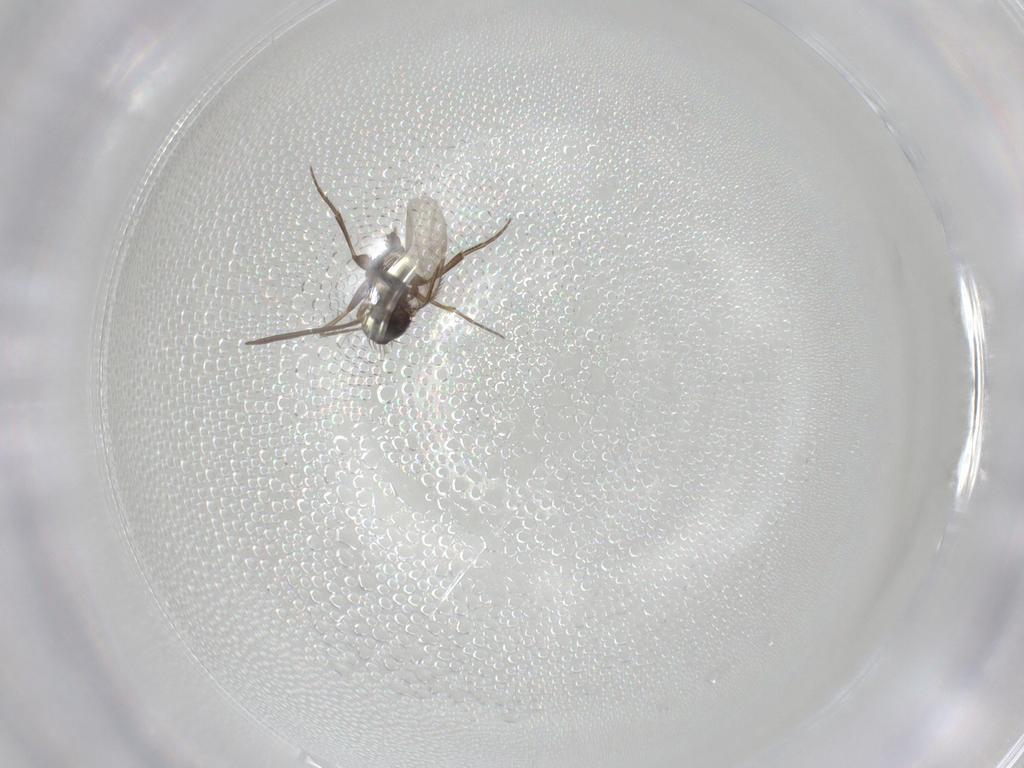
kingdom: Animalia
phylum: Arthropoda
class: Insecta
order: Diptera
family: Phoridae
